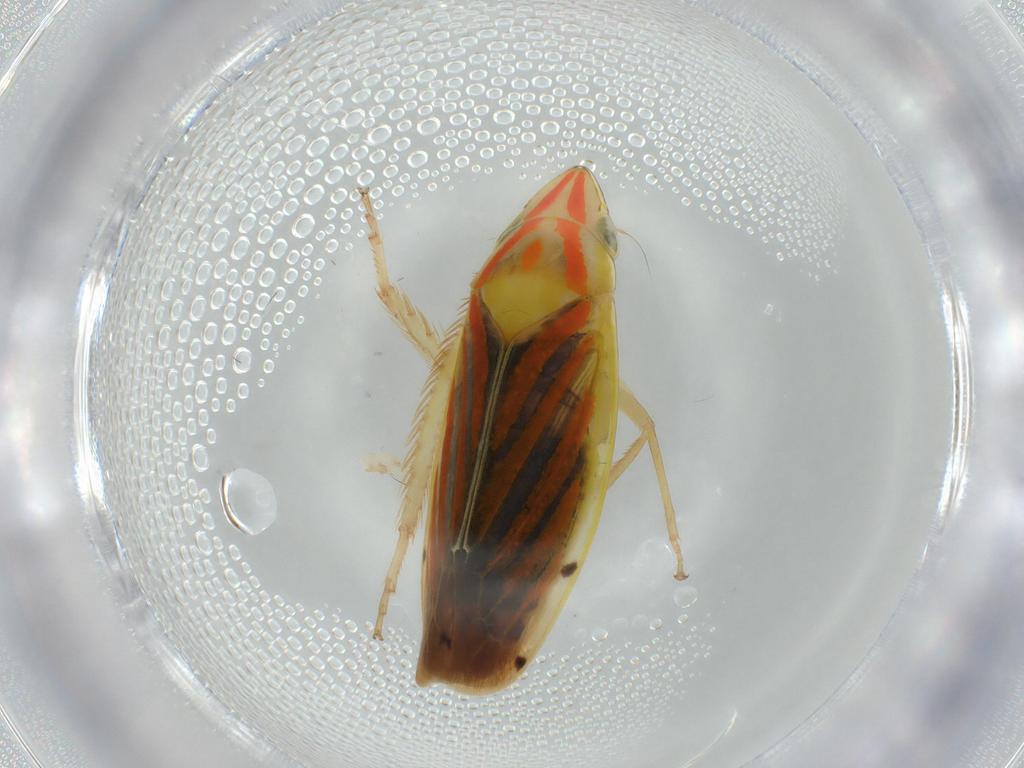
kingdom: Animalia
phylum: Arthropoda
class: Insecta
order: Hemiptera
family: Cicadellidae
